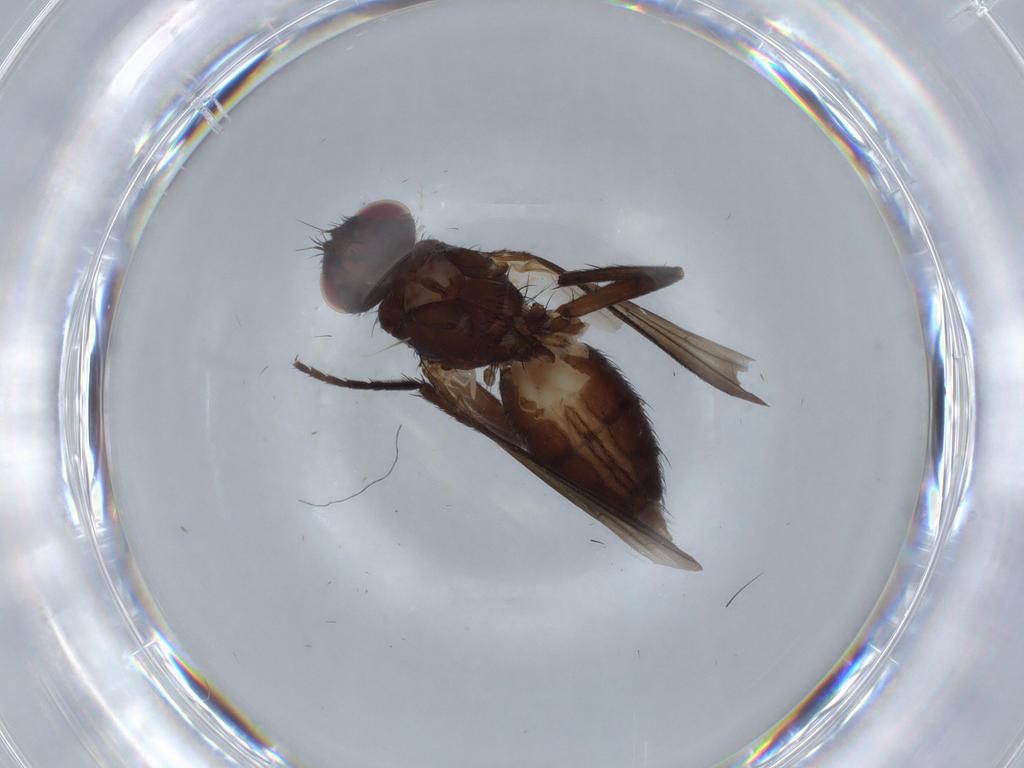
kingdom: Animalia
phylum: Arthropoda
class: Insecta
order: Diptera
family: Tachinidae
